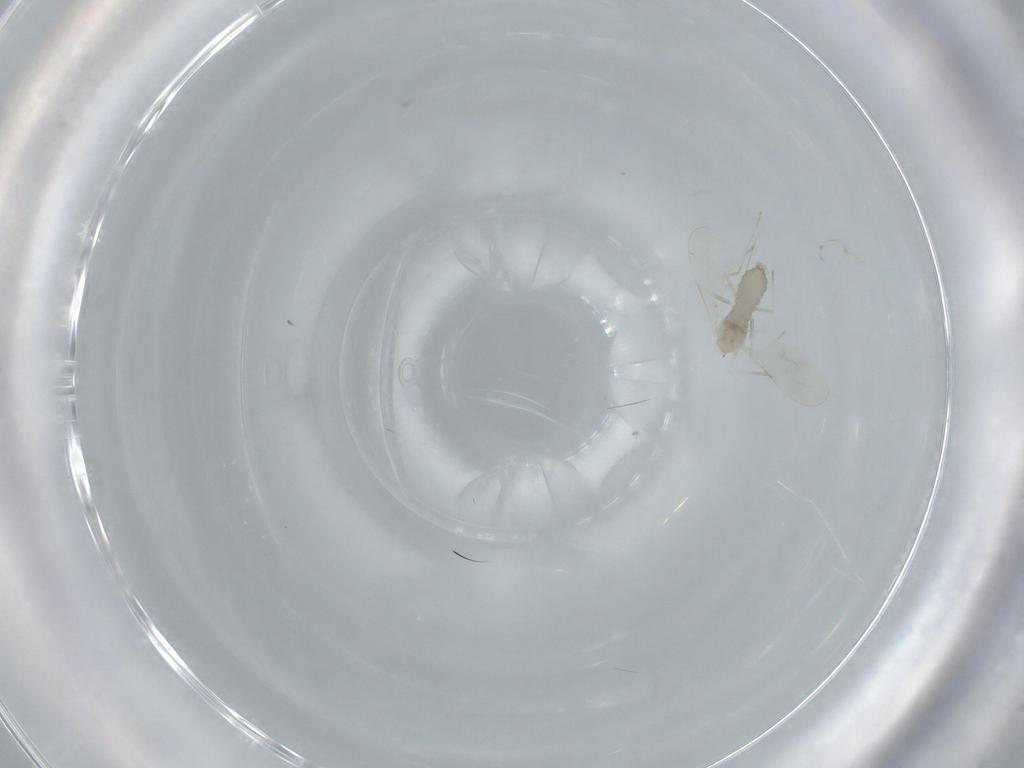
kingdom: Animalia
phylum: Arthropoda
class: Insecta
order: Diptera
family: Cecidomyiidae
